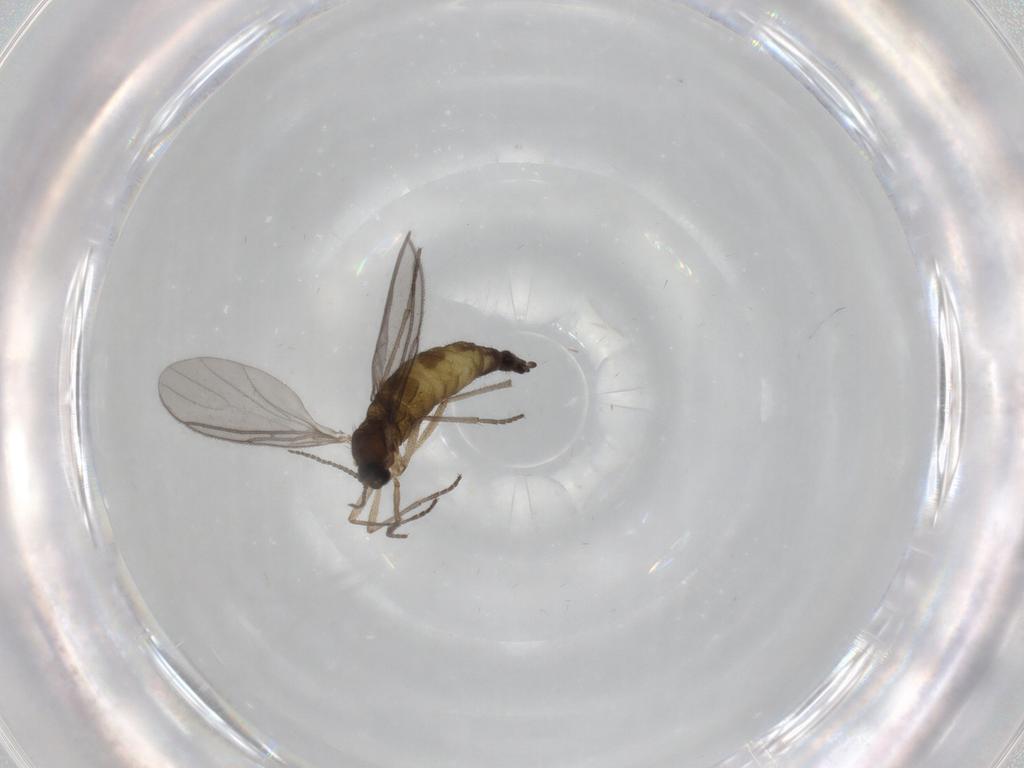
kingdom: Animalia
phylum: Arthropoda
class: Insecta
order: Diptera
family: Sciaridae
